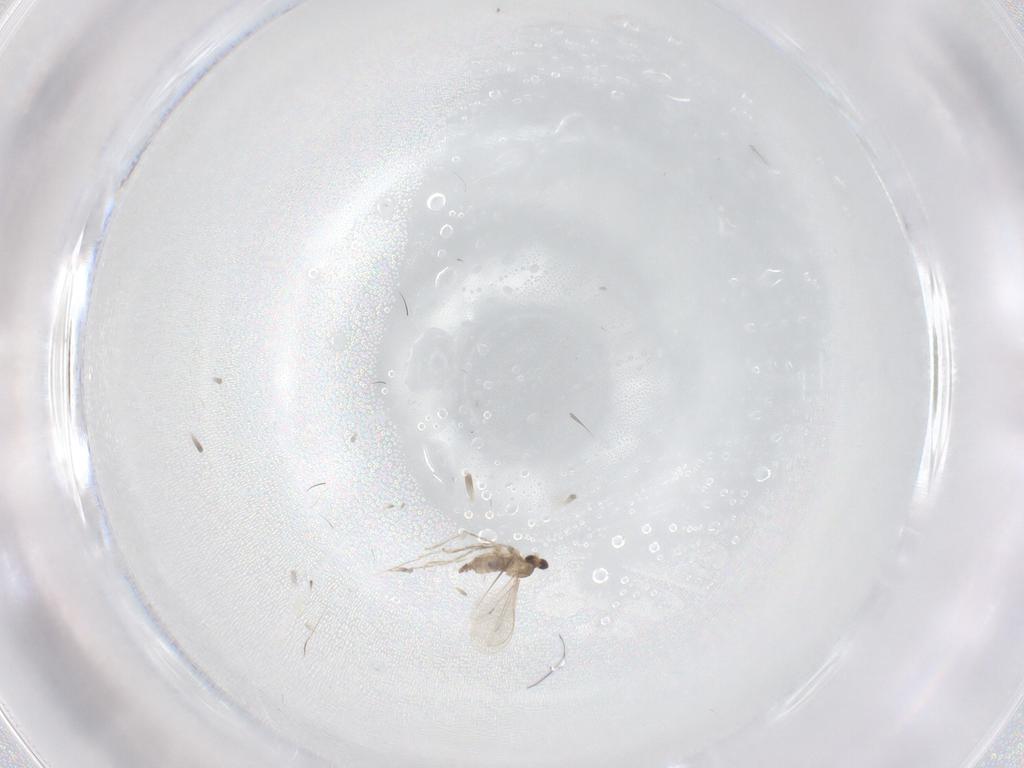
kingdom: Animalia
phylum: Arthropoda
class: Insecta
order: Diptera
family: Cecidomyiidae
